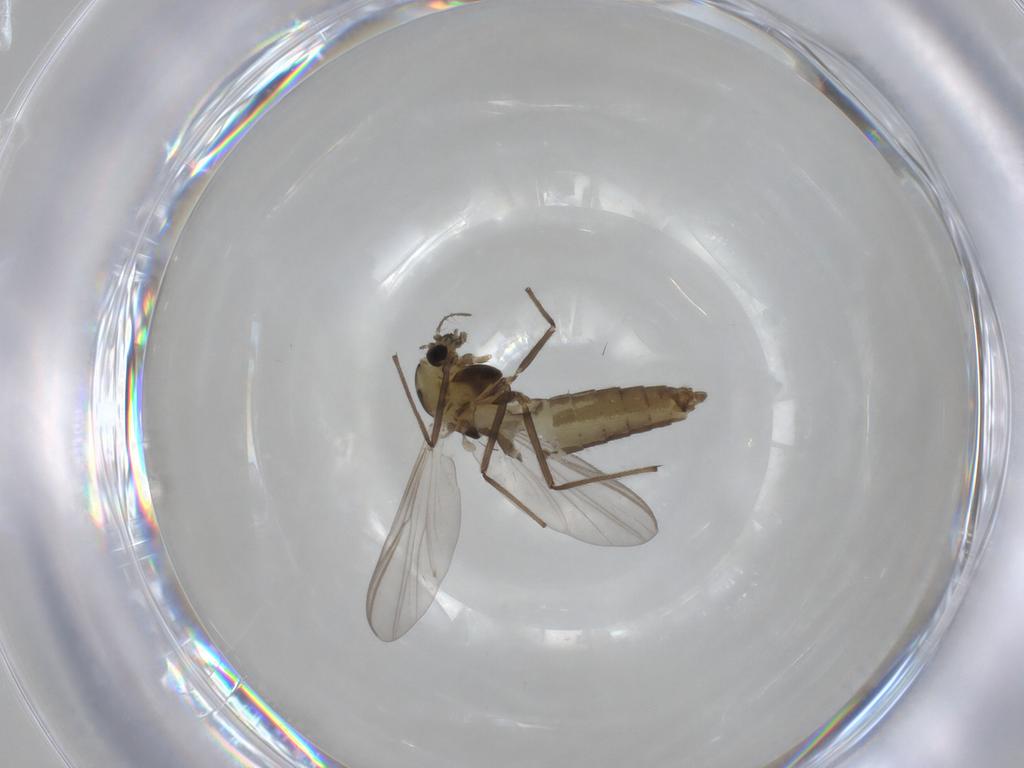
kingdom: Animalia
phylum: Arthropoda
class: Insecta
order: Diptera
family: Chironomidae
